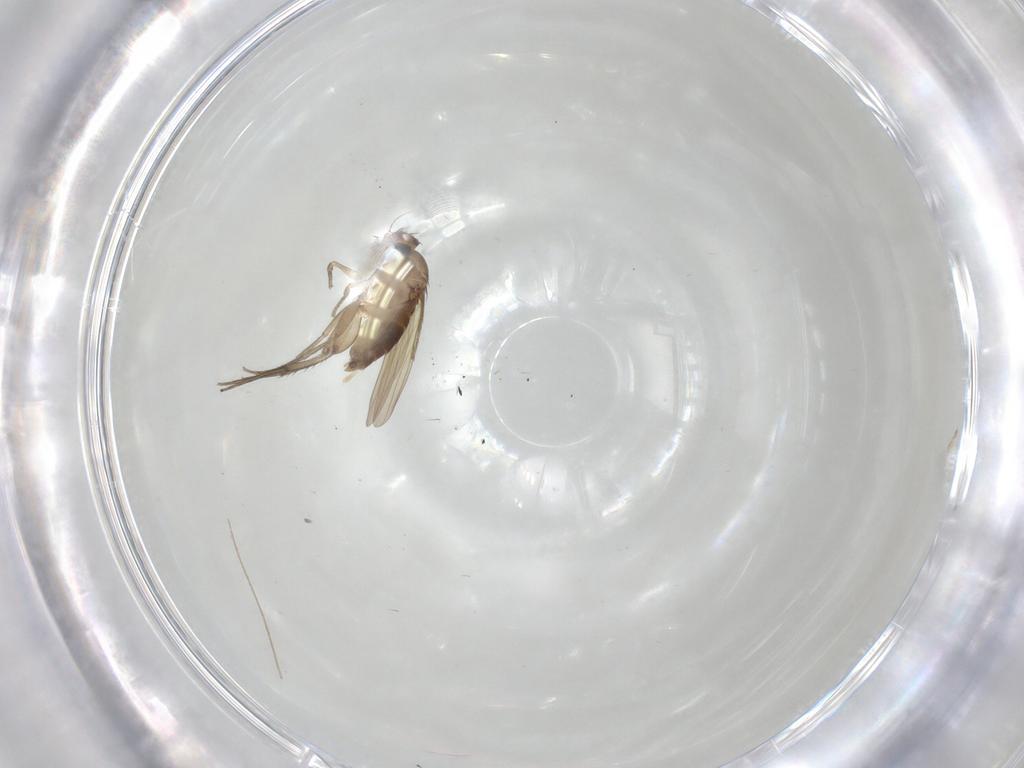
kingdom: Animalia
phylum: Arthropoda
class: Insecta
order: Diptera
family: Phoridae
